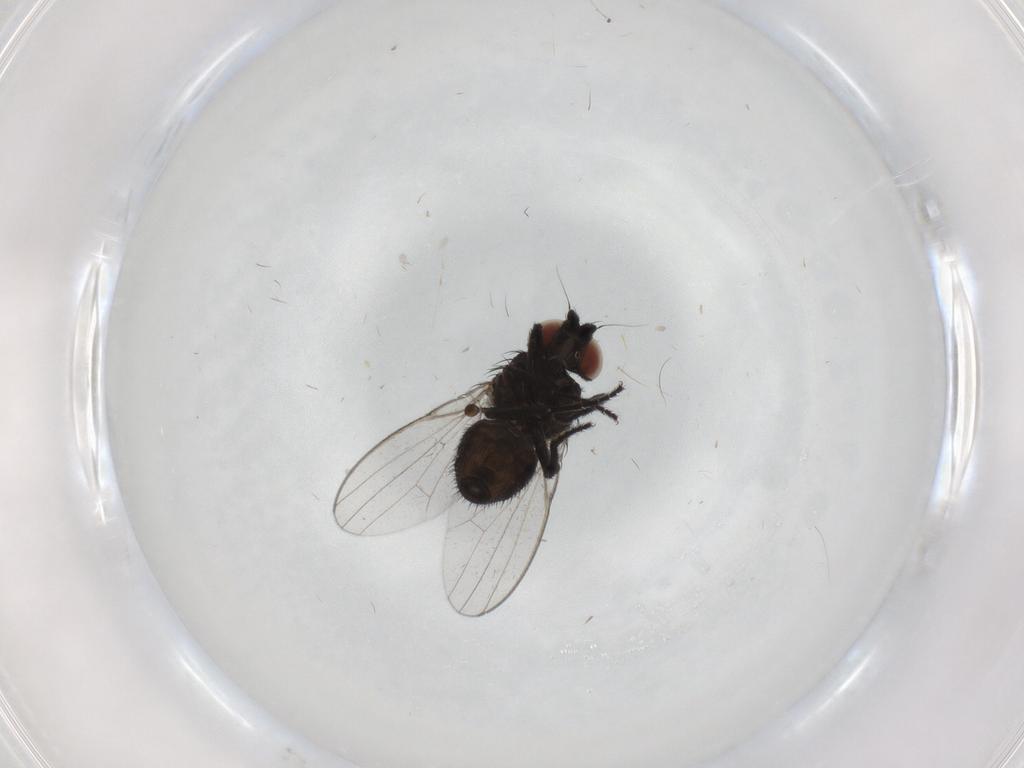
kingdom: Animalia
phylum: Arthropoda
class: Insecta
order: Diptera
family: Milichiidae
